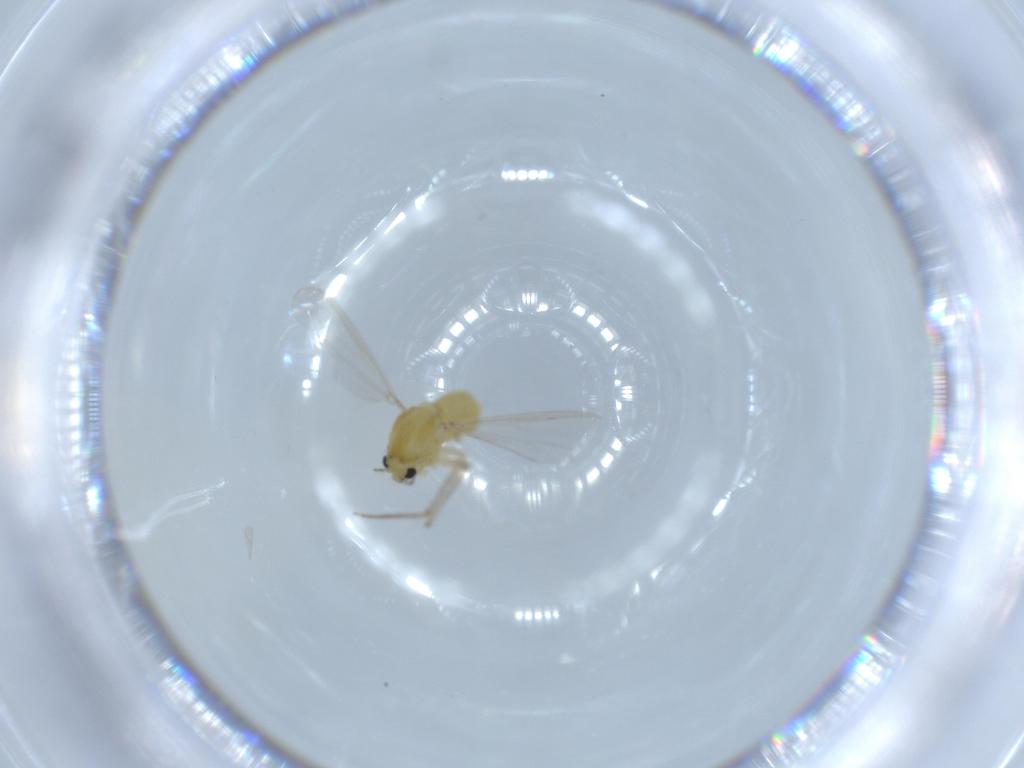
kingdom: Animalia
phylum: Arthropoda
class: Insecta
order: Diptera
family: Chironomidae
